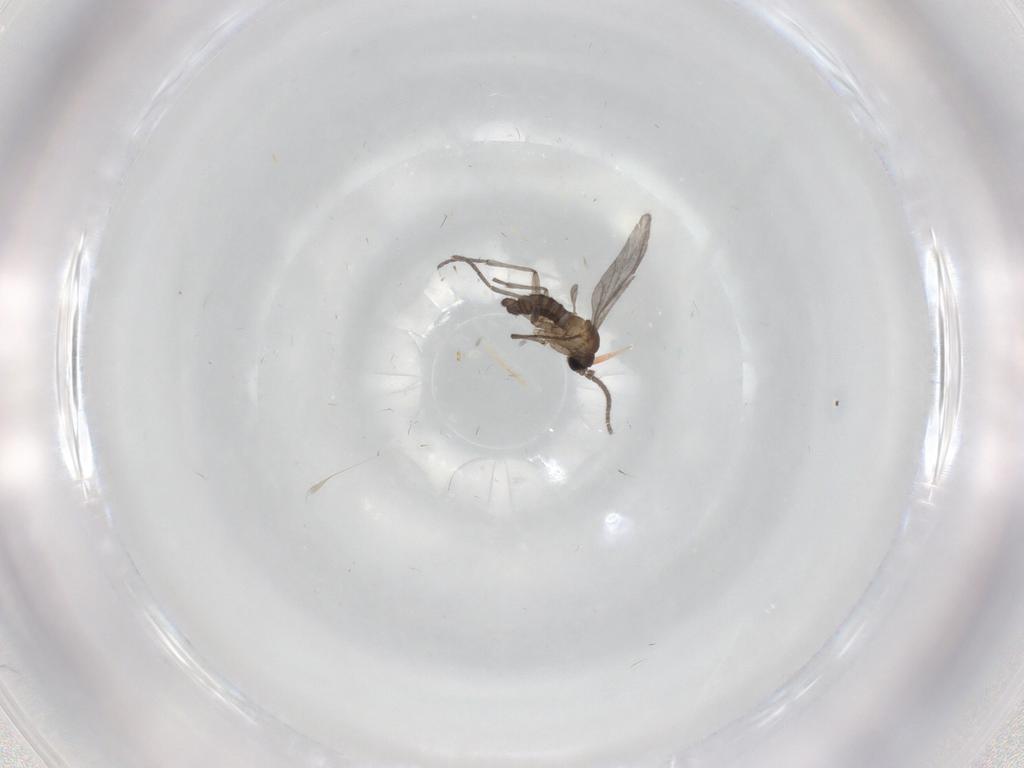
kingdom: Animalia
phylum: Arthropoda
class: Insecta
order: Diptera
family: Sciaridae
